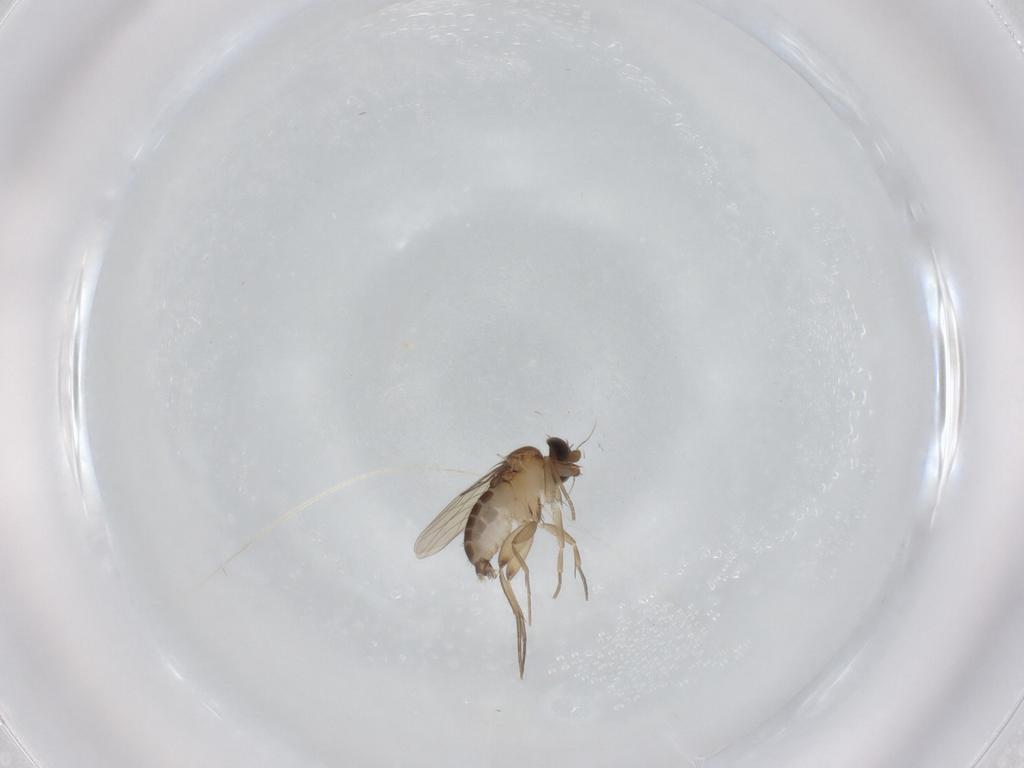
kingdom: Animalia
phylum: Arthropoda
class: Insecta
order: Diptera
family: Phoridae
